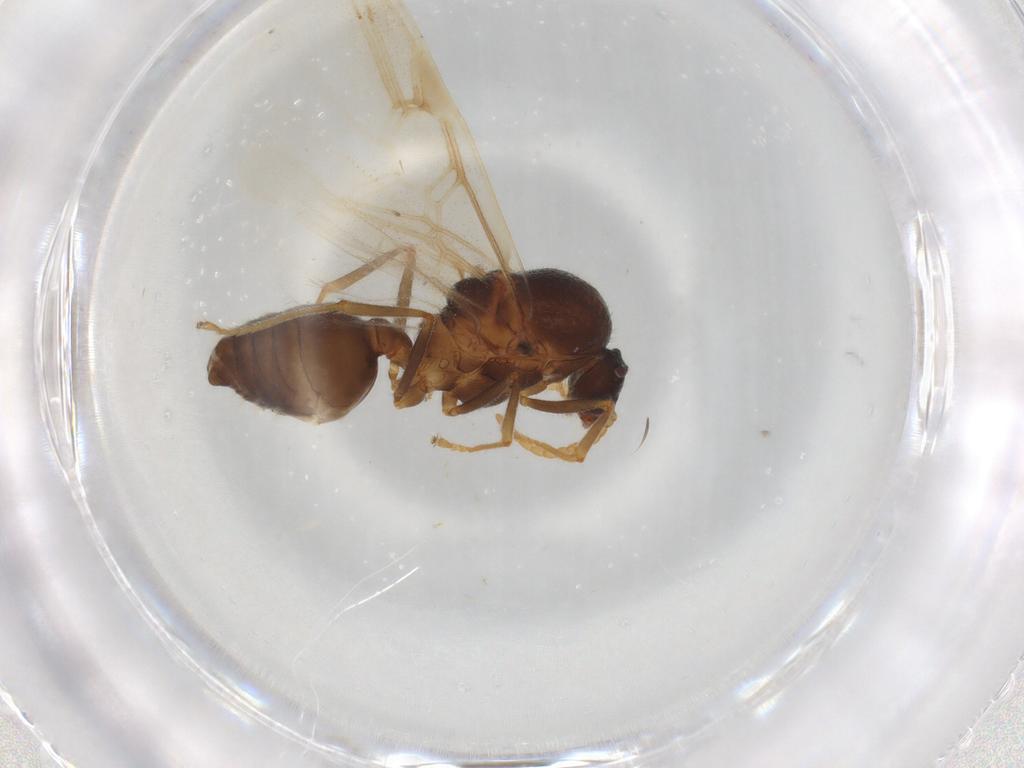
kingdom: Animalia
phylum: Arthropoda
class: Insecta
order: Hymenoptera
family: Formicidae
